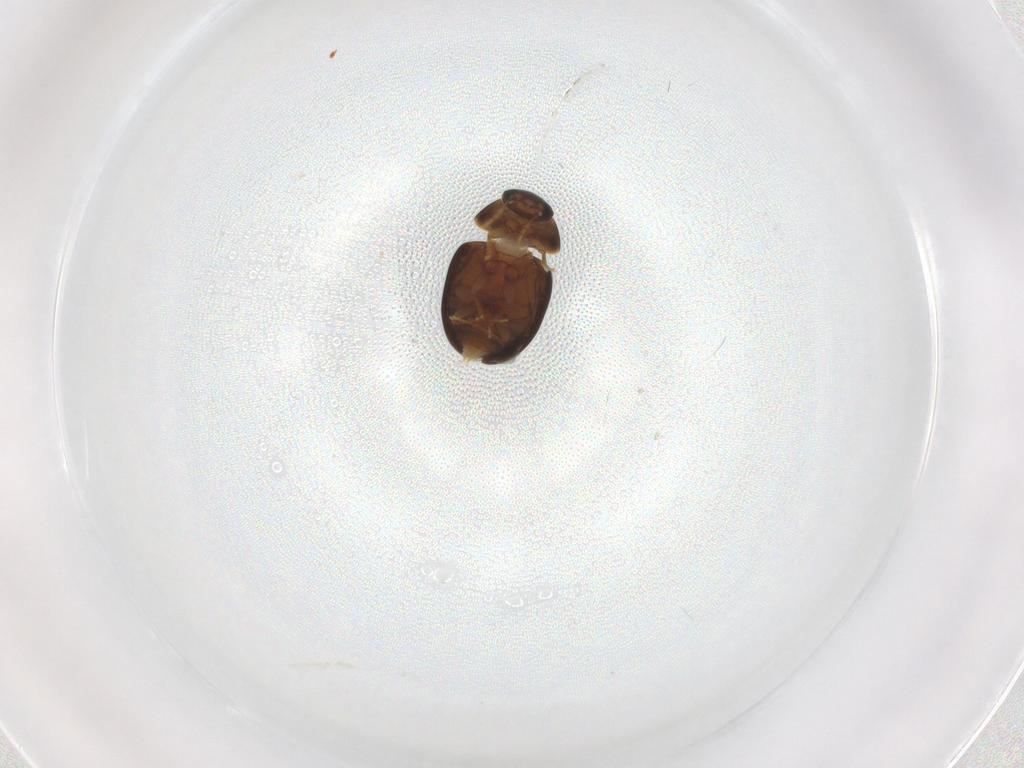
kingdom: Animalia
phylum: Arthropoda
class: Insecta
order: Coleoptera
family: Phalacridae
